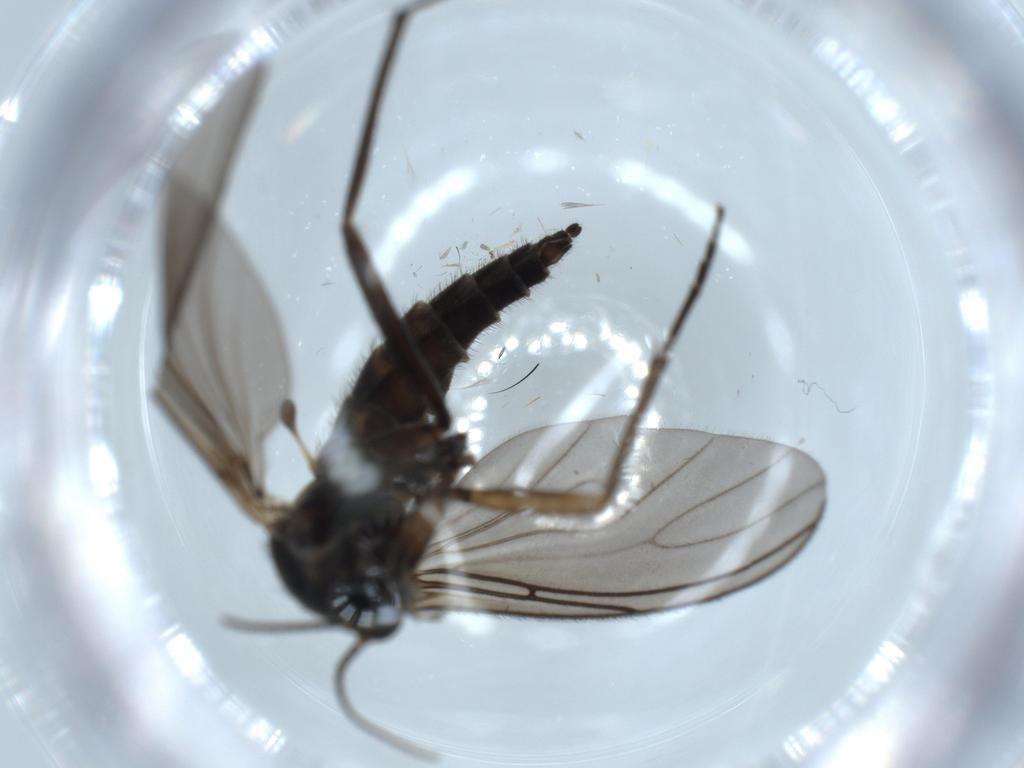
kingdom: Animalia
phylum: Arthropoda
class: Insecta
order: Diptera
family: Sciaridae
